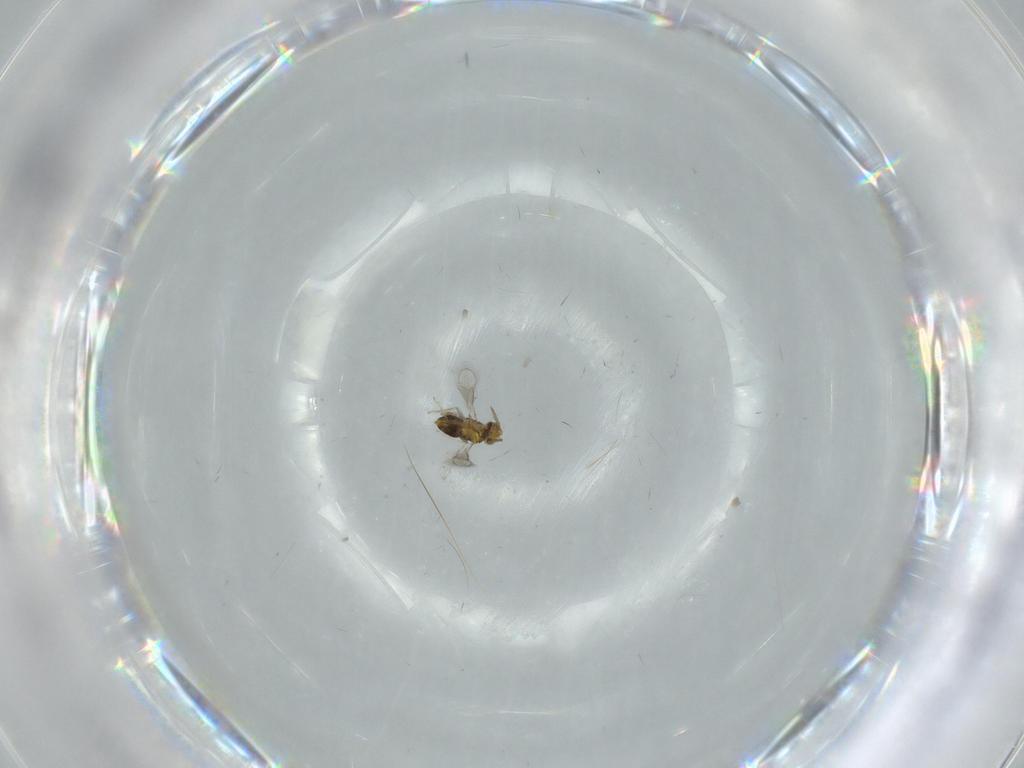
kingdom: Animalia
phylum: Arthropoda
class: Insecta
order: Hymenoptera
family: Aphelinidae
